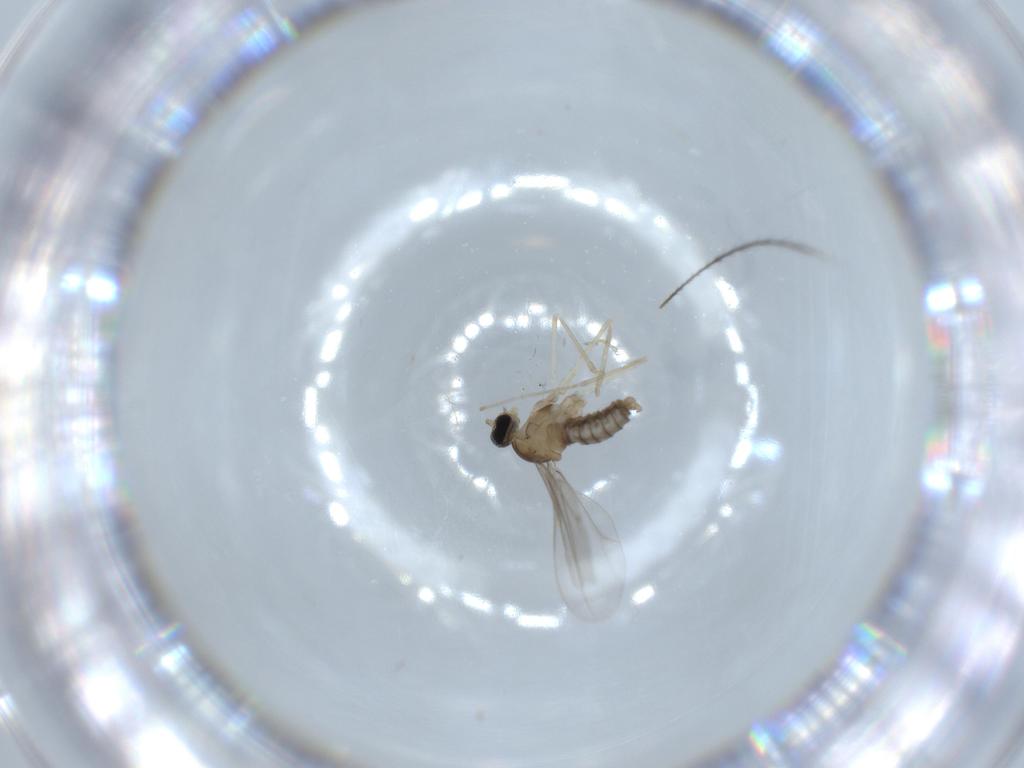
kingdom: Animalia
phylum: Arthropoda
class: Insecta
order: Diptera
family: Cecidomyiidae
